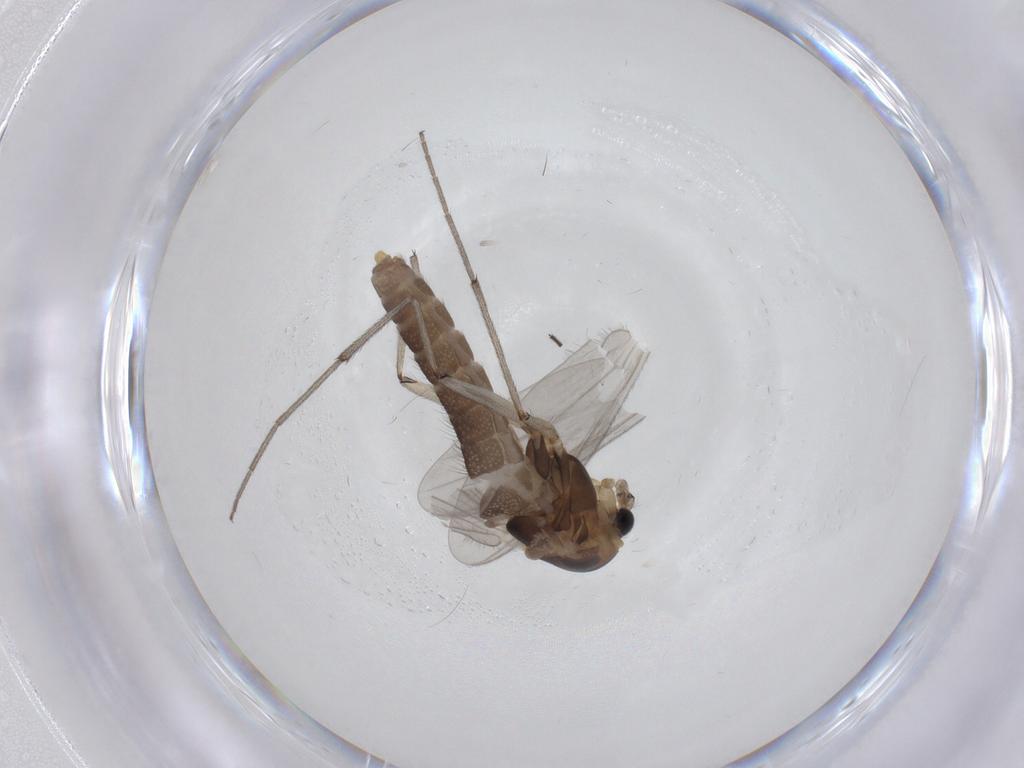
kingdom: Animalia
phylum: Arthropoda
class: Insecta
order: Diptera
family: Chironomidae
